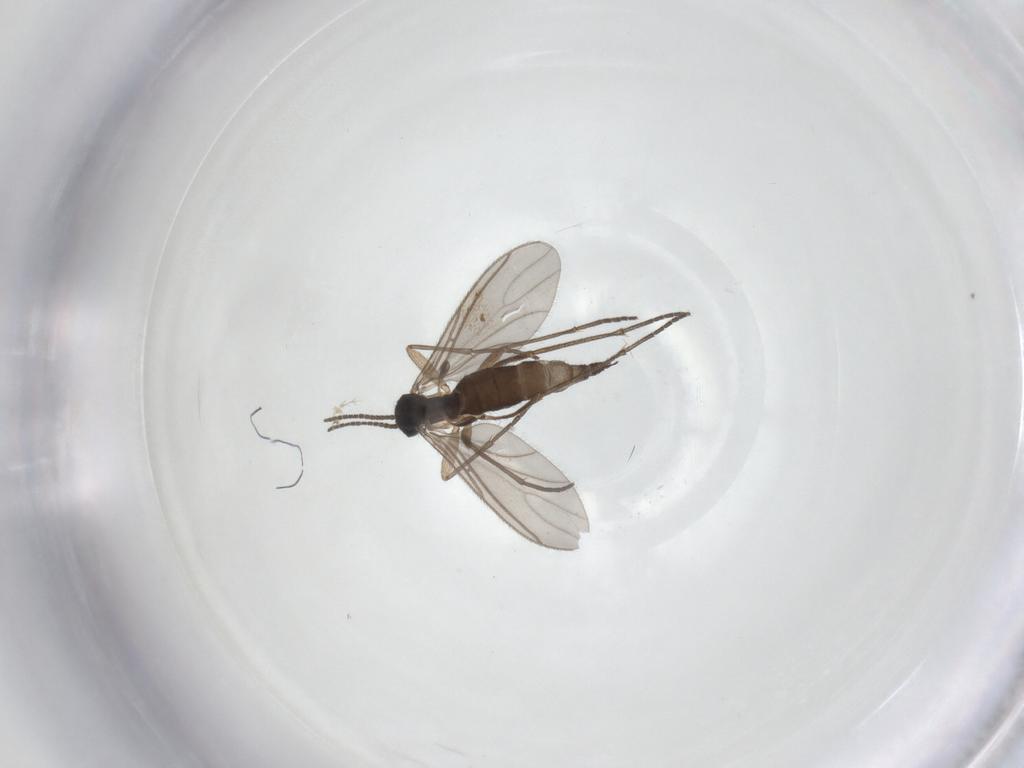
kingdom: Animalia
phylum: Arthropoda
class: Insecta
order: Diptera
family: Sciaridae
